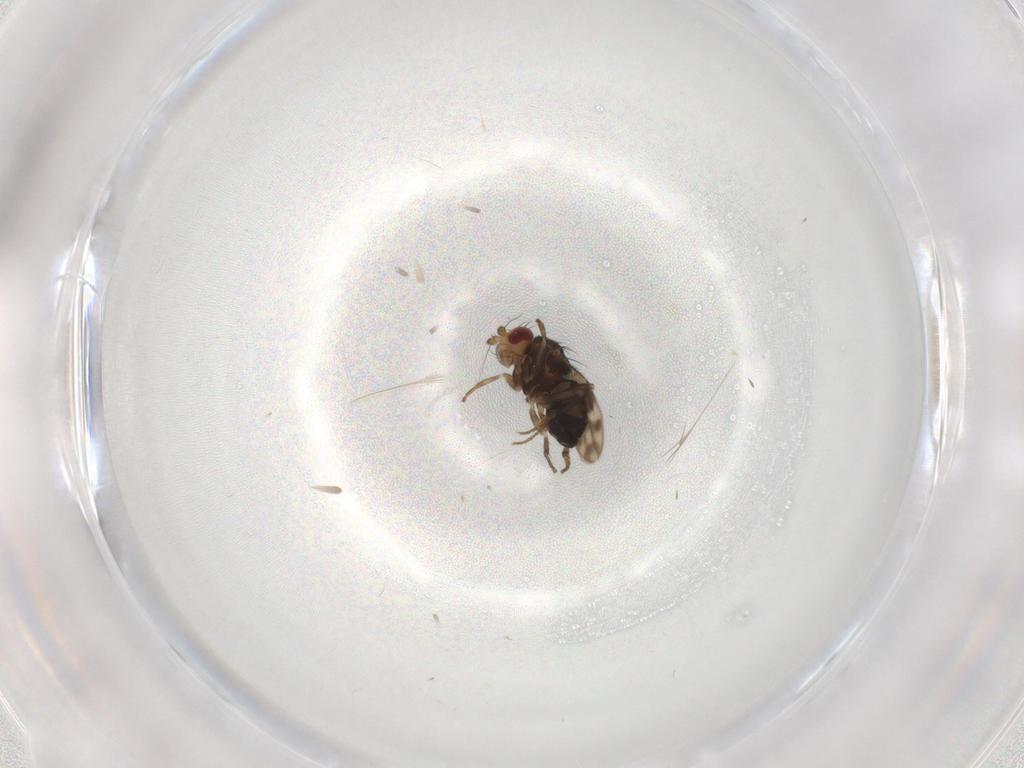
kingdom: Animalia
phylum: Arthropoda
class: Insecta
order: Diptera
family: Sphaeroceridae
